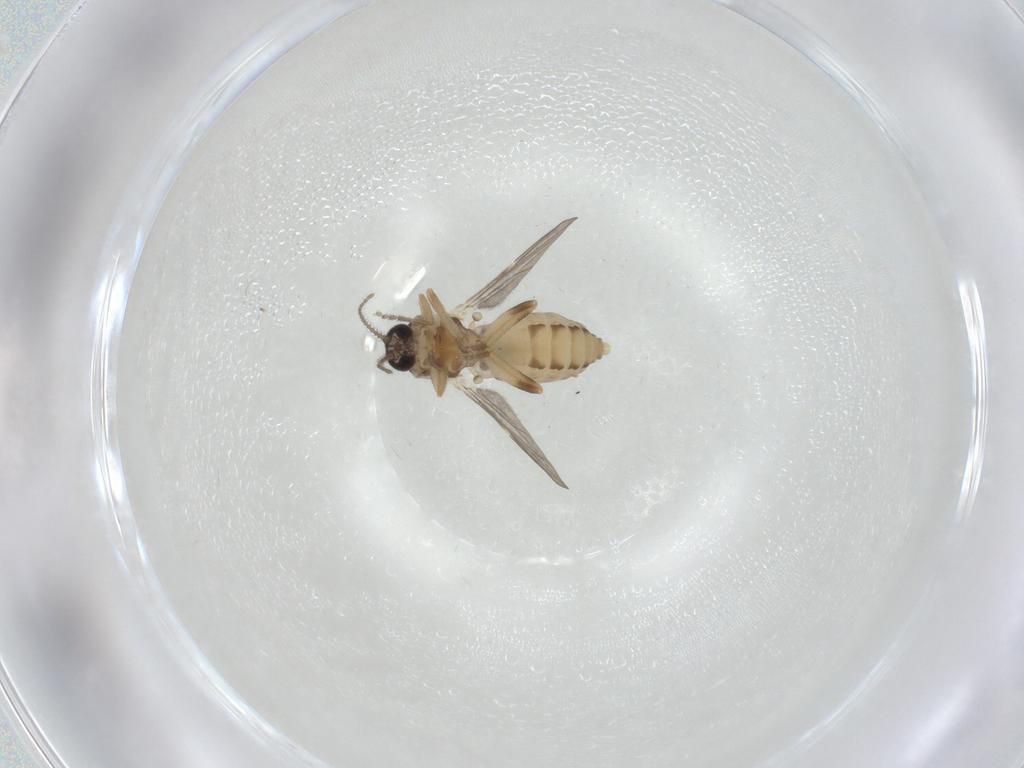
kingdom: Animalia
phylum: Arthropoda
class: Insecta
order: Diptera
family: Ceratopogonidae
